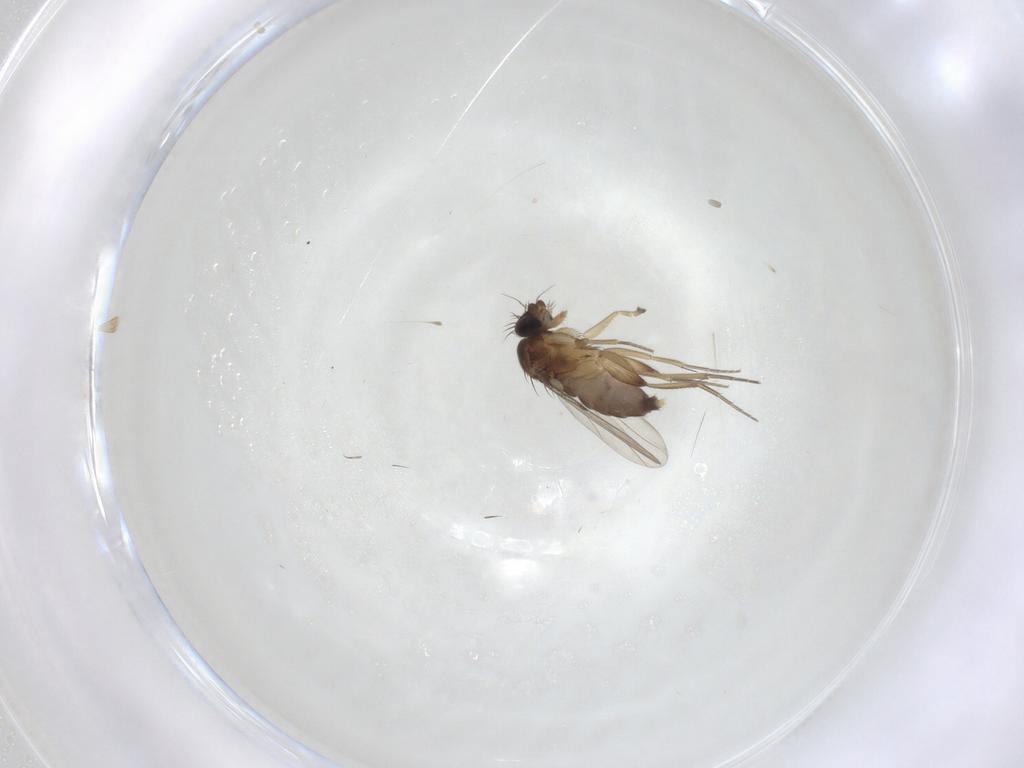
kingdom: Animalia
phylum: Arthropoda
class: Insecta
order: Diptera
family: Phoridae
